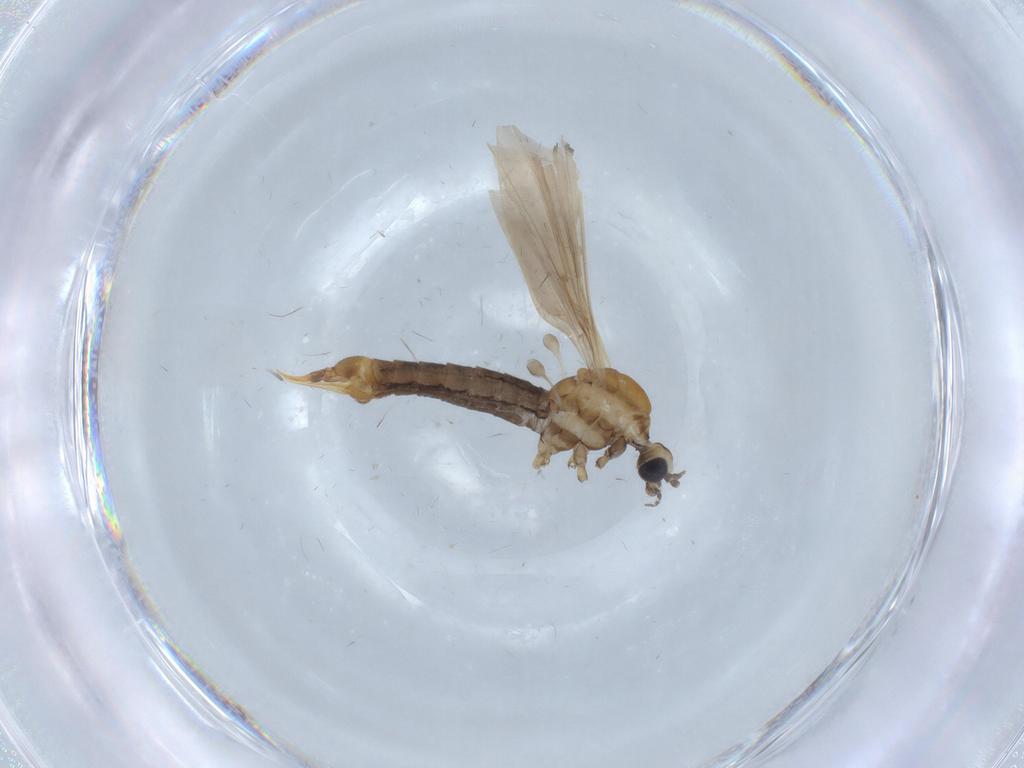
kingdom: Animalia
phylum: Arthropoda
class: Insecta
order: Diptera
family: Limoniidae
